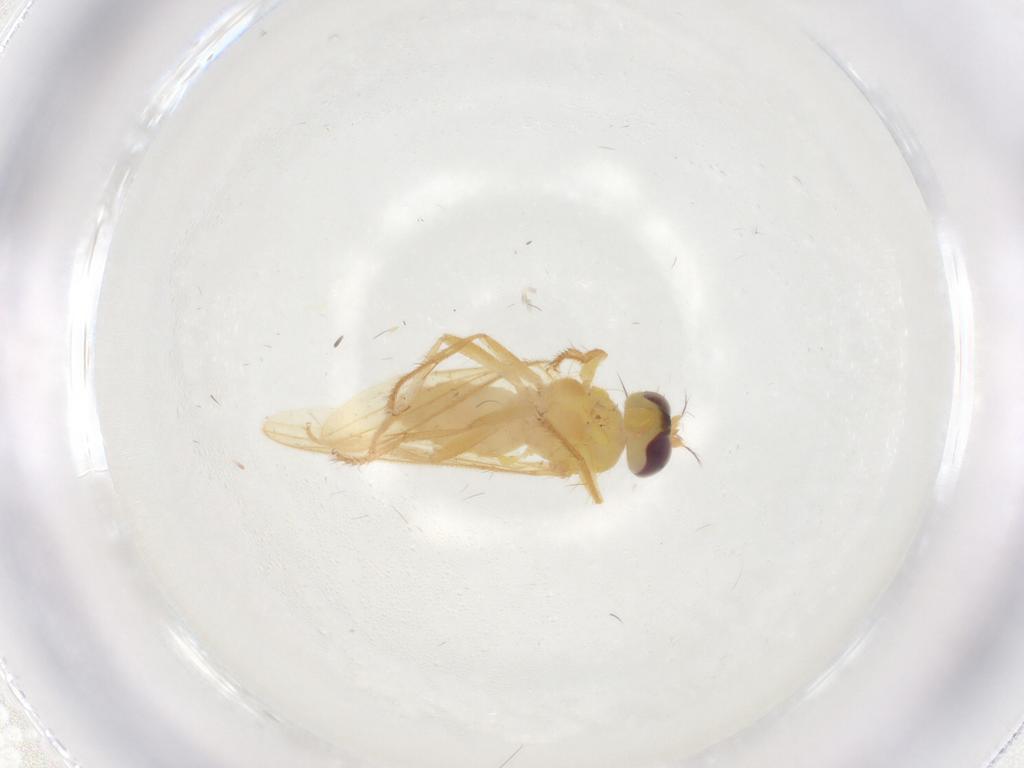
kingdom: Animalia
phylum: Arthropoda
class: Insecta
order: Diptera
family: Periscelididae
